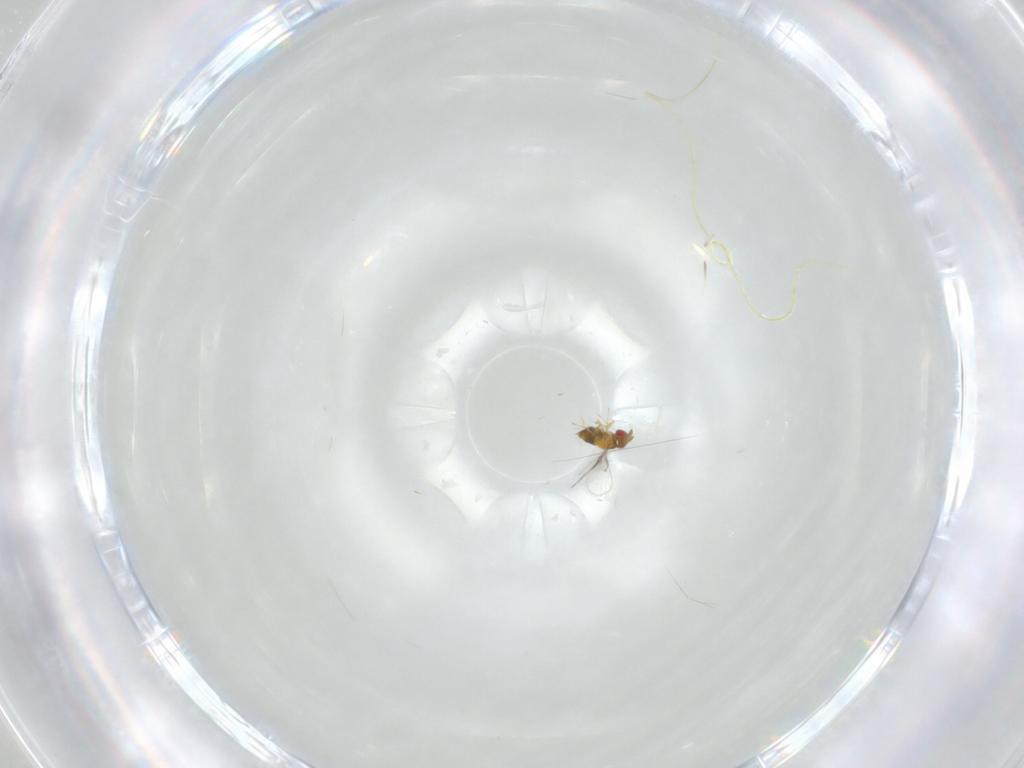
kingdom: Animalia
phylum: Arthropoda
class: Insecta
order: Hymenoptera
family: Trichogrammatidae
